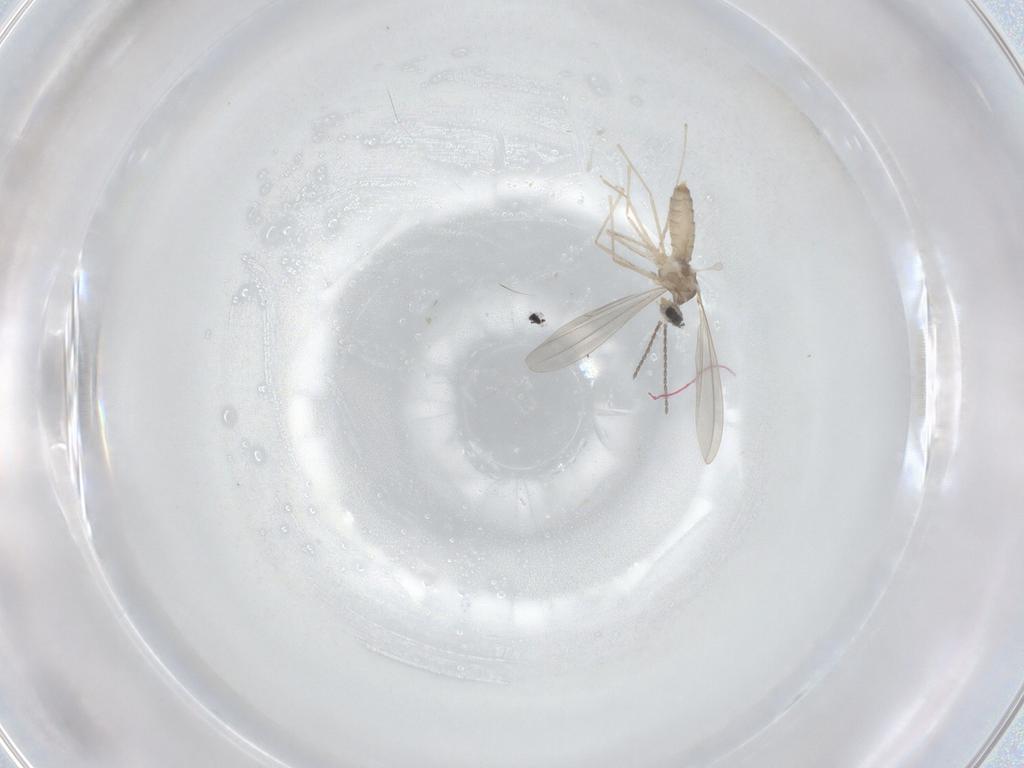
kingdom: Animalia
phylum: Arthropoda
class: Insecta
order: Diptera
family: Cecidomyiidae
